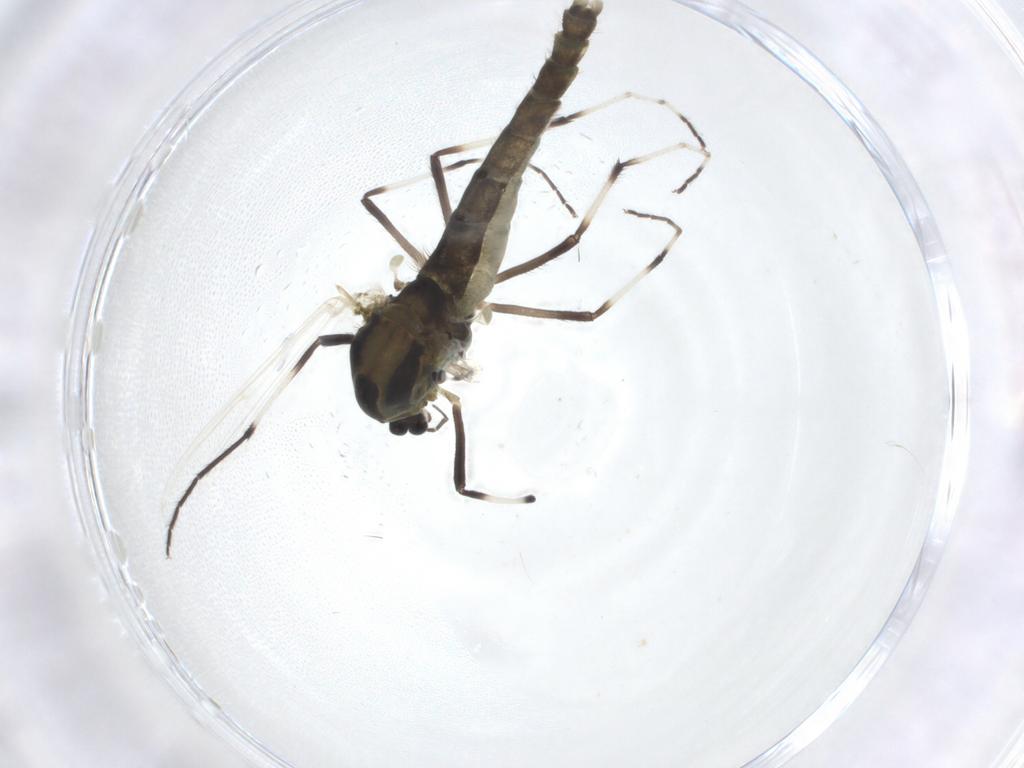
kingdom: Animalia
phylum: Arthropoda
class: Insecta
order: Diptera
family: Chironomidae
